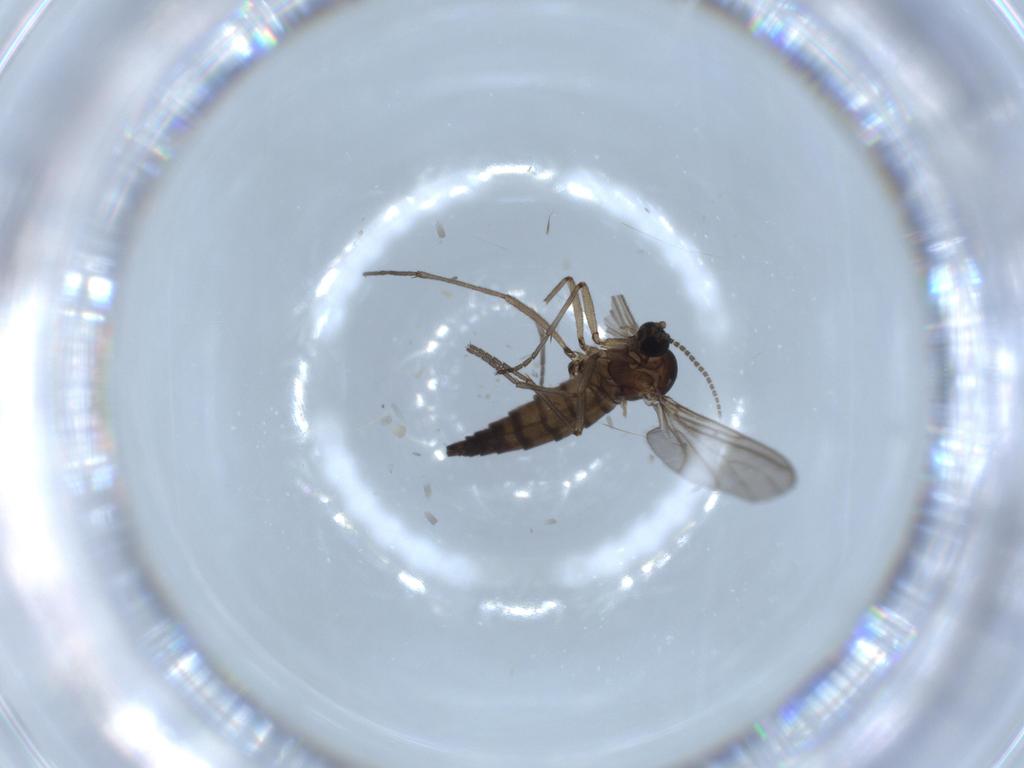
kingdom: Animalia
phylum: Arthropoda
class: Insecta
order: Diptera
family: Sciaridae
